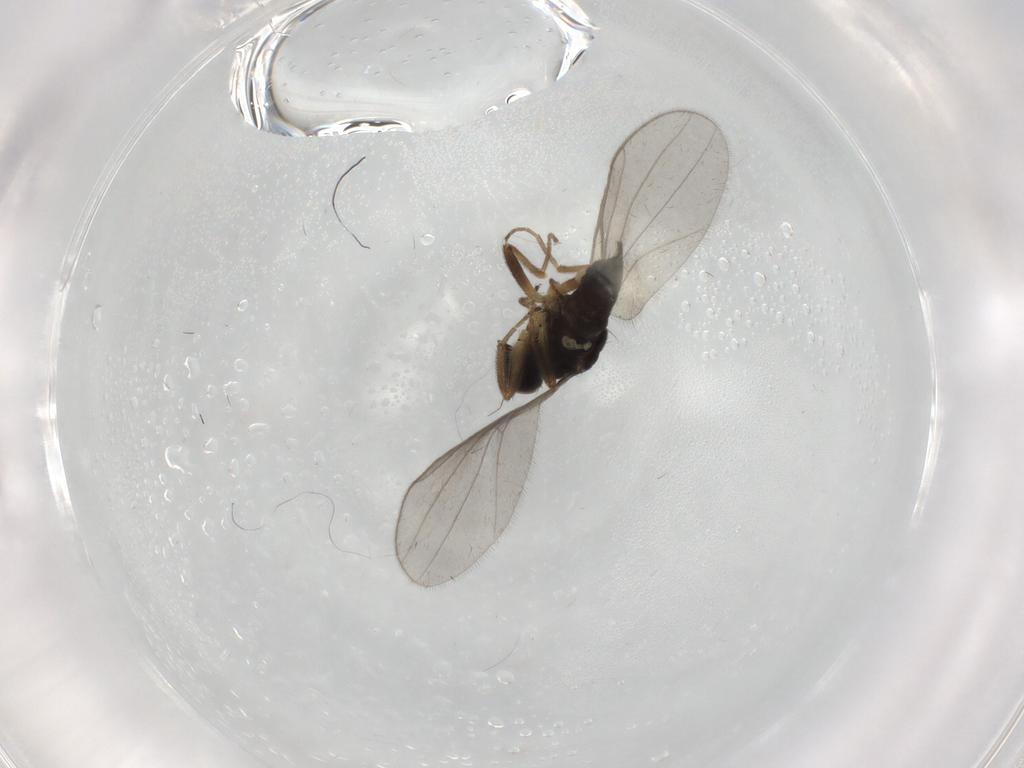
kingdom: Animalia
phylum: Arthropoda
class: Insecta
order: Diptera
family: Hybotidae
